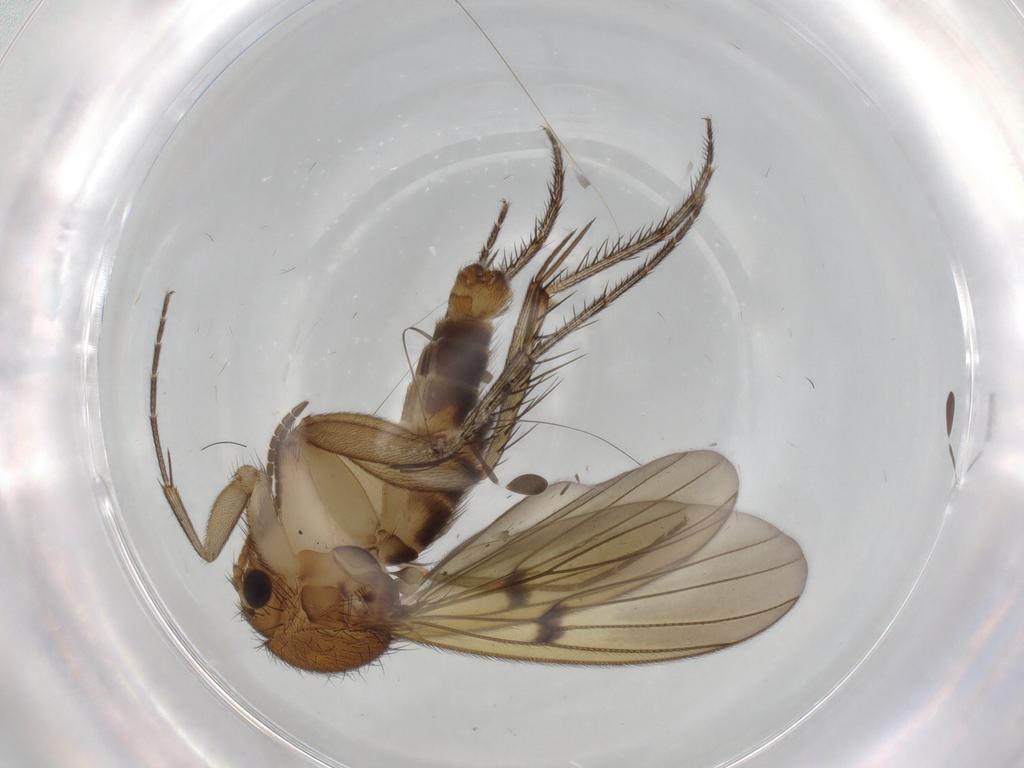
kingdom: Animalia
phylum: Arthropoda
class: Insecta
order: Diptera
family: Mycetophilidae
